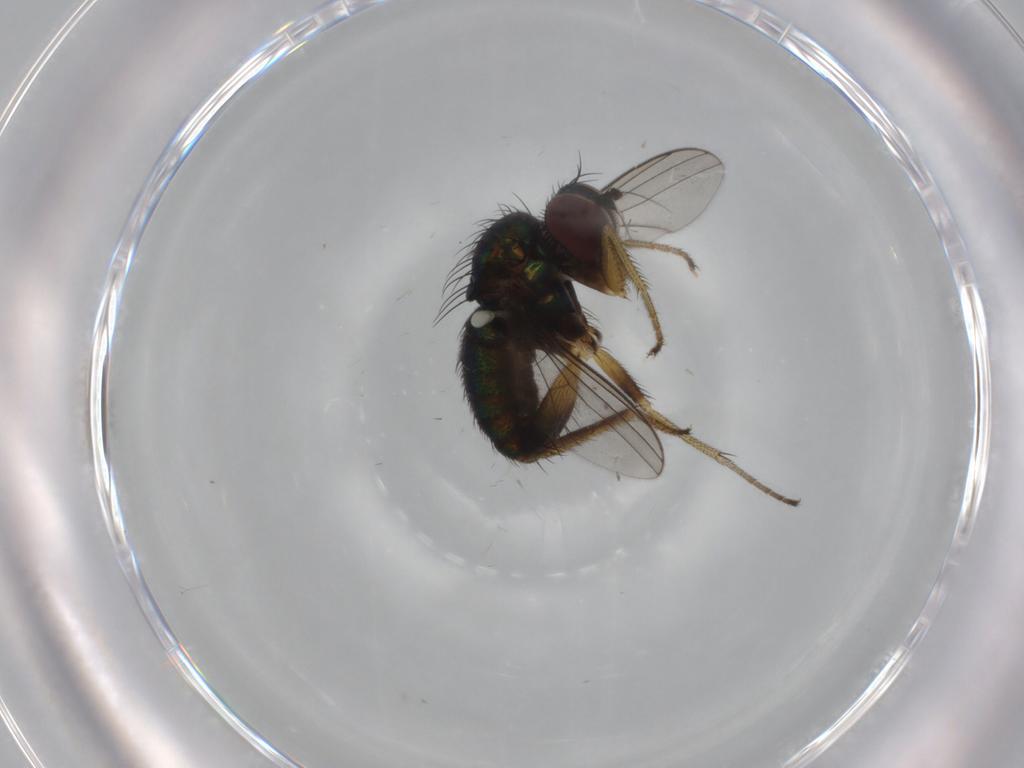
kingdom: Animalia
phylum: Arthropoda
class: Insecta
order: Diptera
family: Dolichopodidae
